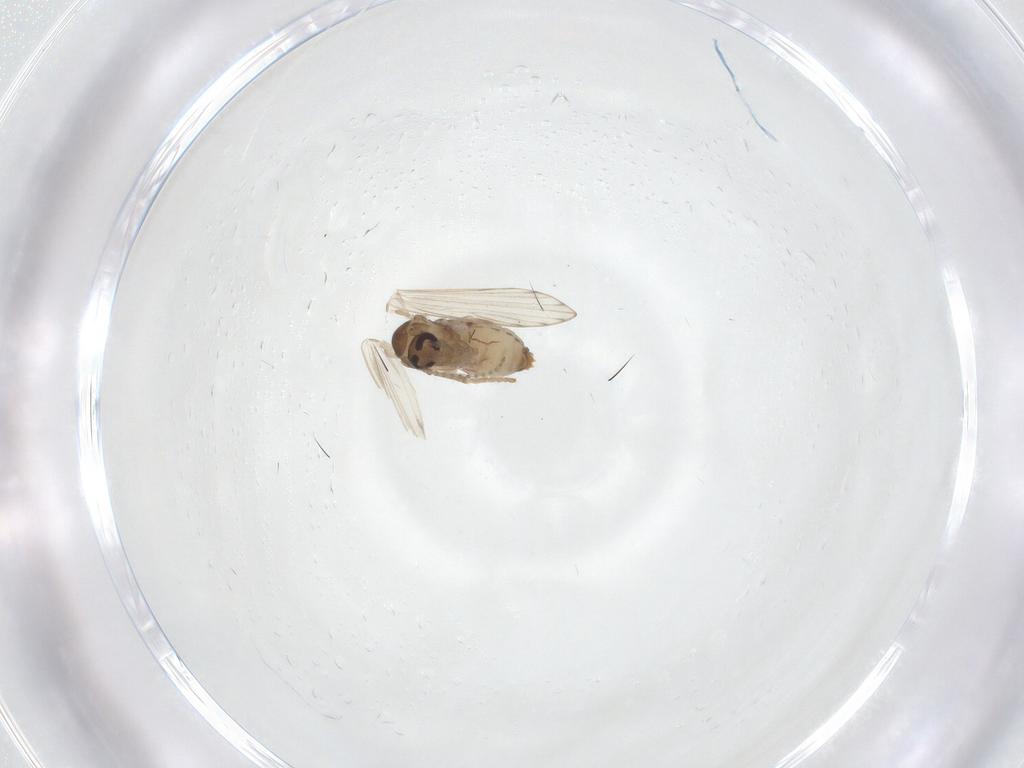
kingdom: Animalia
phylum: Arthropoda
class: Insecta
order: Diptera
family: Psychodidae
